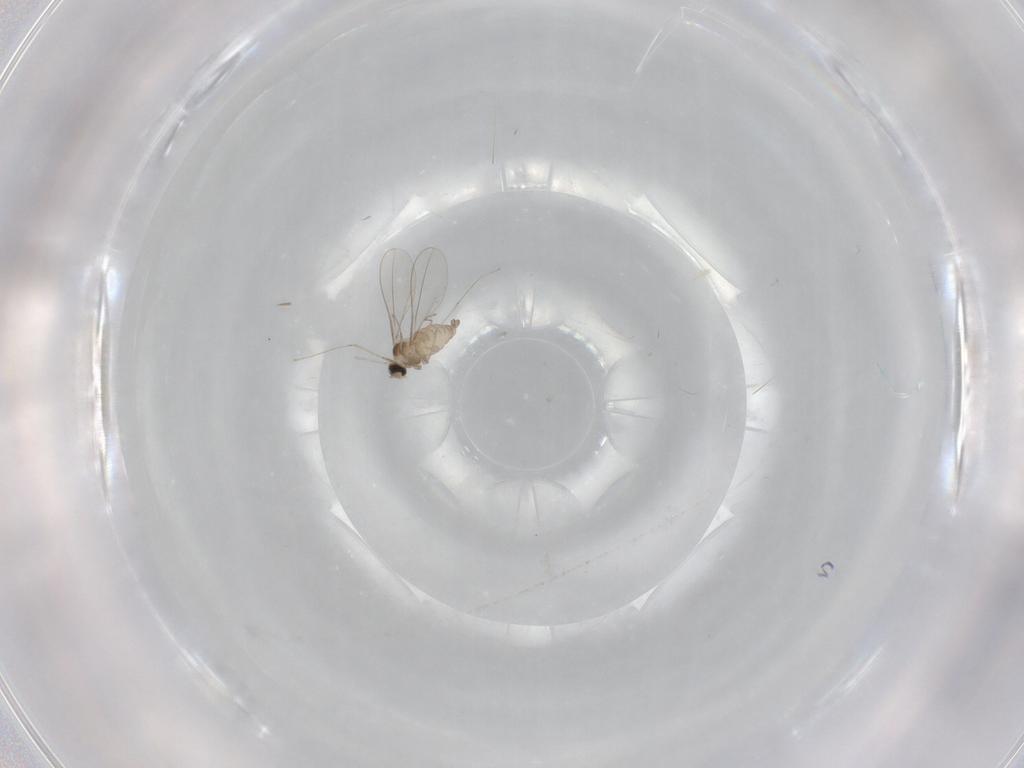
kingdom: Animalia
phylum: Arthropoda
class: Insecta
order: Diptera
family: Cecidomyiidae
